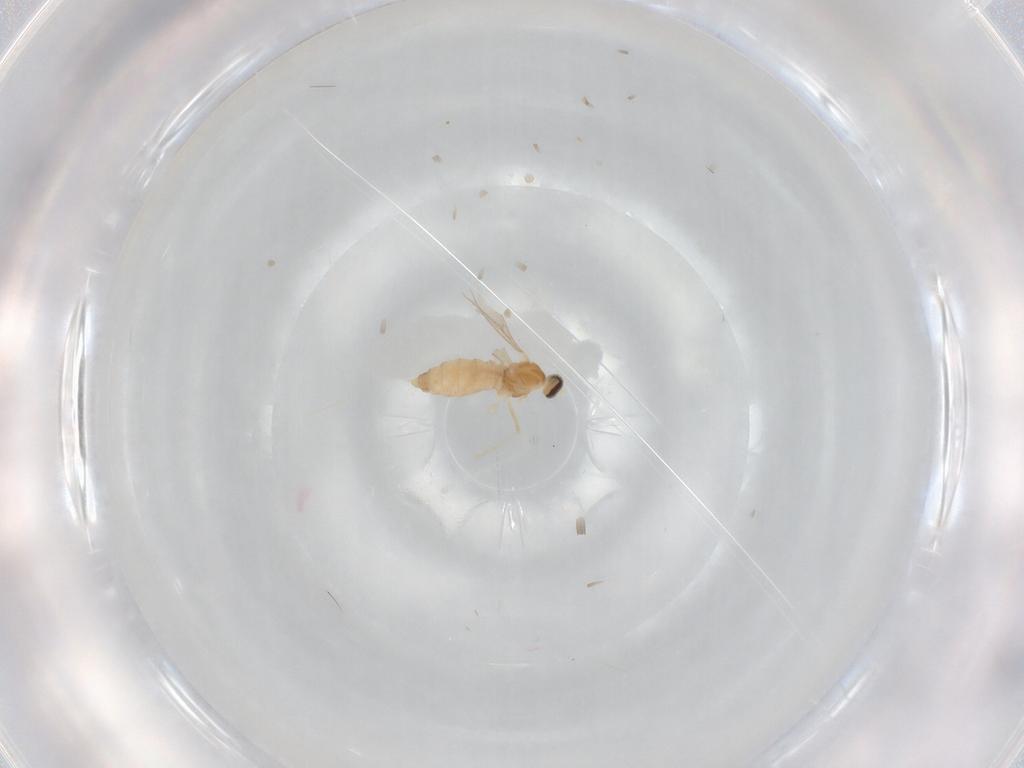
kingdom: Animalia
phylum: Arthropoda
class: Insecta
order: Diptera
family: Cecidomyiidae
